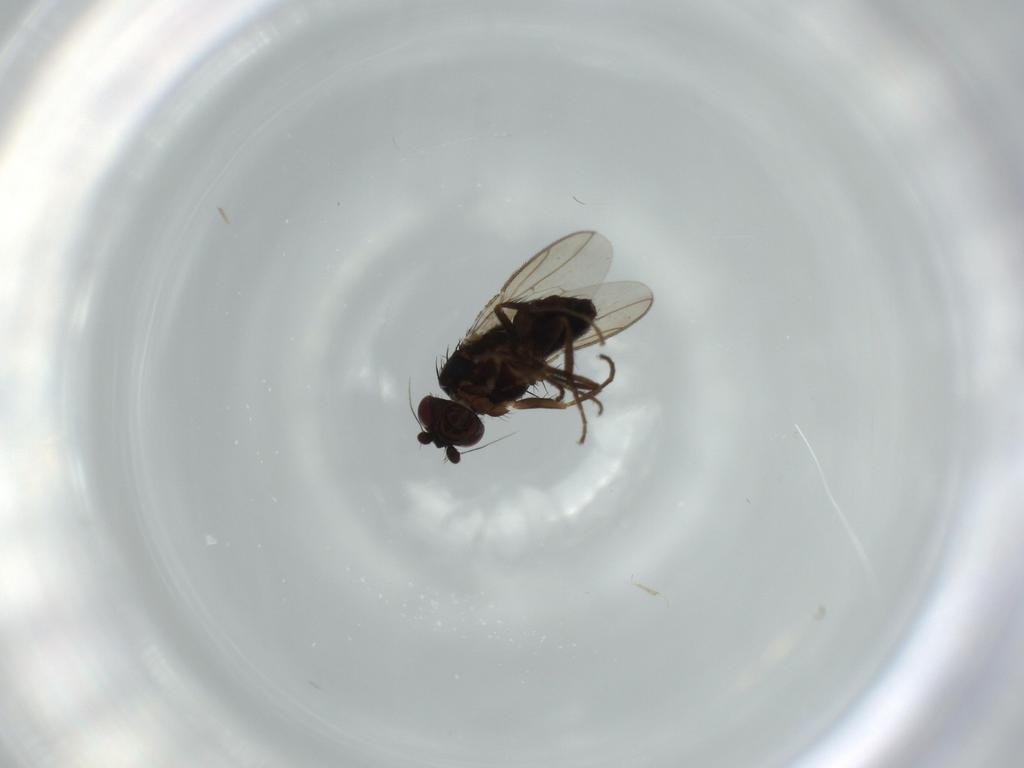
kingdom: Animalia
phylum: Arthropoda
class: Insecta
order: Diptera
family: Sphaeroceridae
